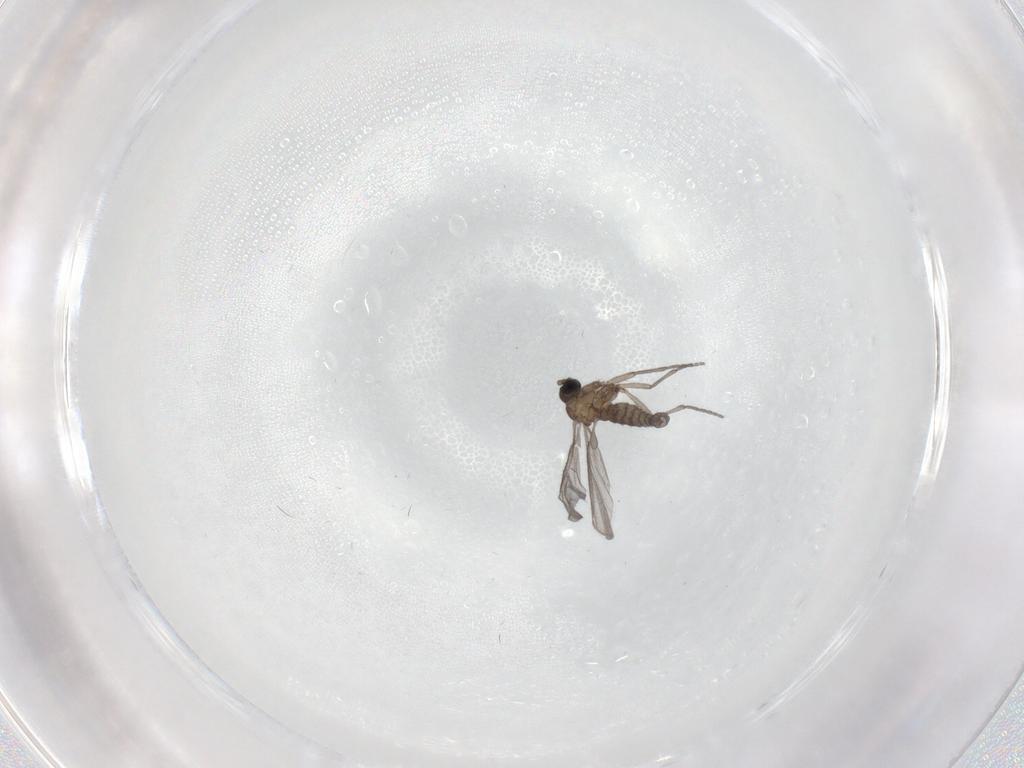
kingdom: Animalia
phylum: Arthropoda
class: Insecta
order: Diptera
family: Sciaridae
